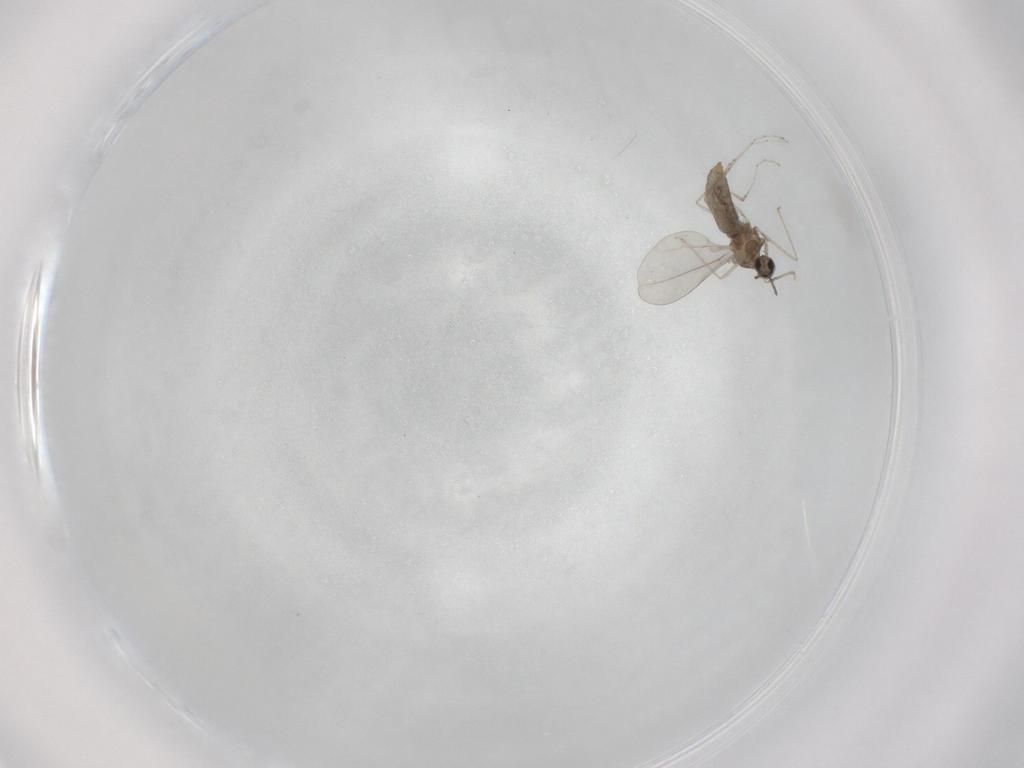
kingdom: Animalia
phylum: Arthropoda
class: Insecta
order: Diptera
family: Cecidomyiidae
